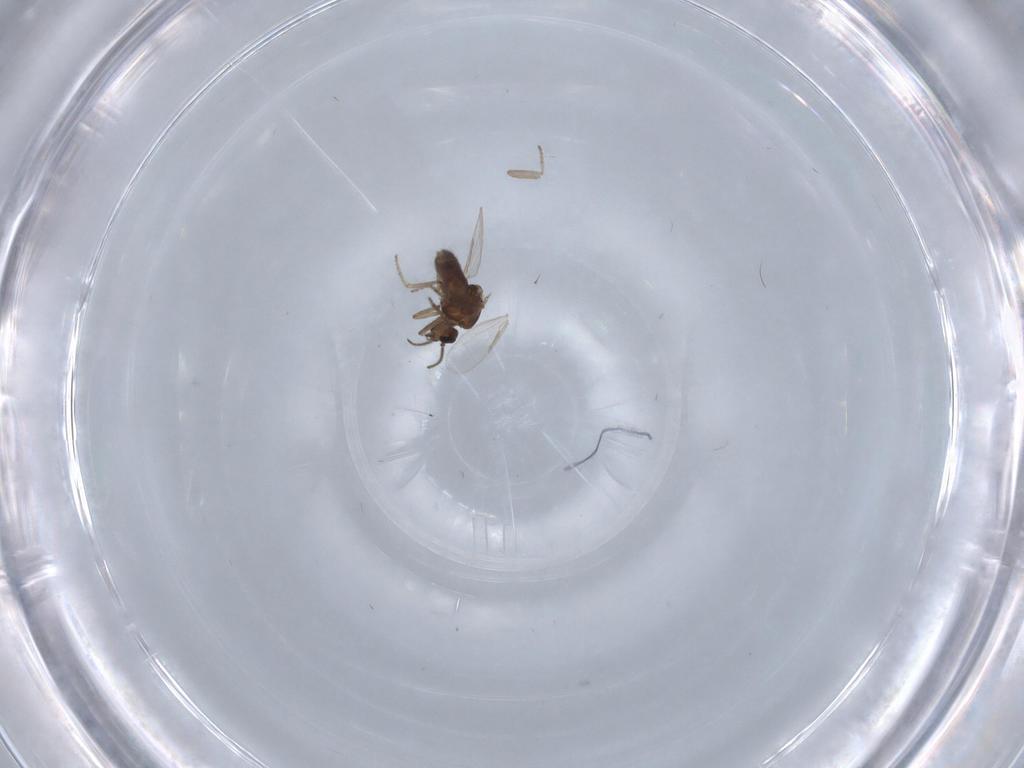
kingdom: Animalia
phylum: Arthropoda
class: Insecta
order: Diptera
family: Ceratopogonidae
